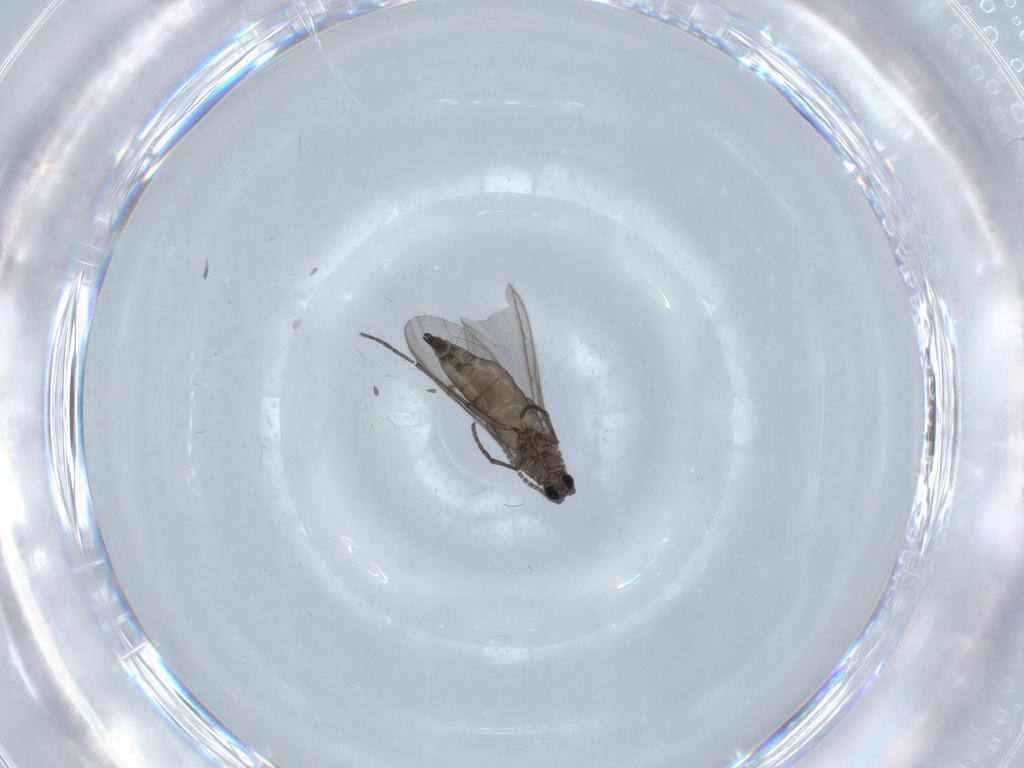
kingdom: Animalia
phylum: Arthropoda
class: Insecta
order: Diptera
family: Sciaridae
